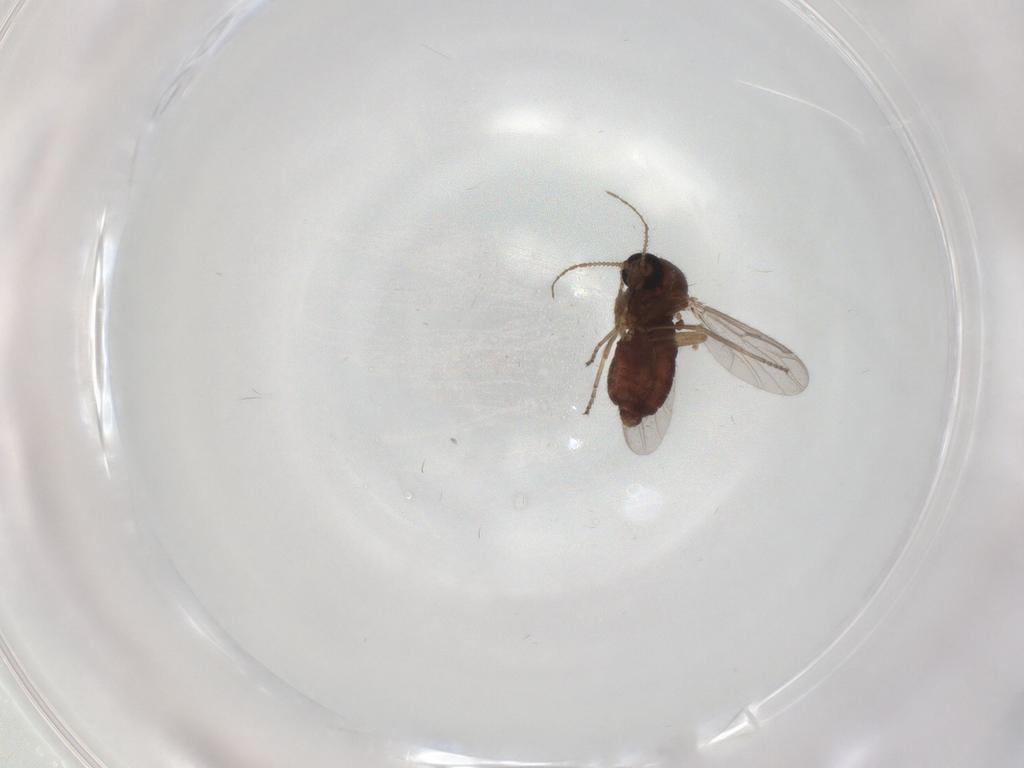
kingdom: Animalia
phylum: Arthropoda
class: Insecta
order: Diptera
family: Ceratopogonidae
